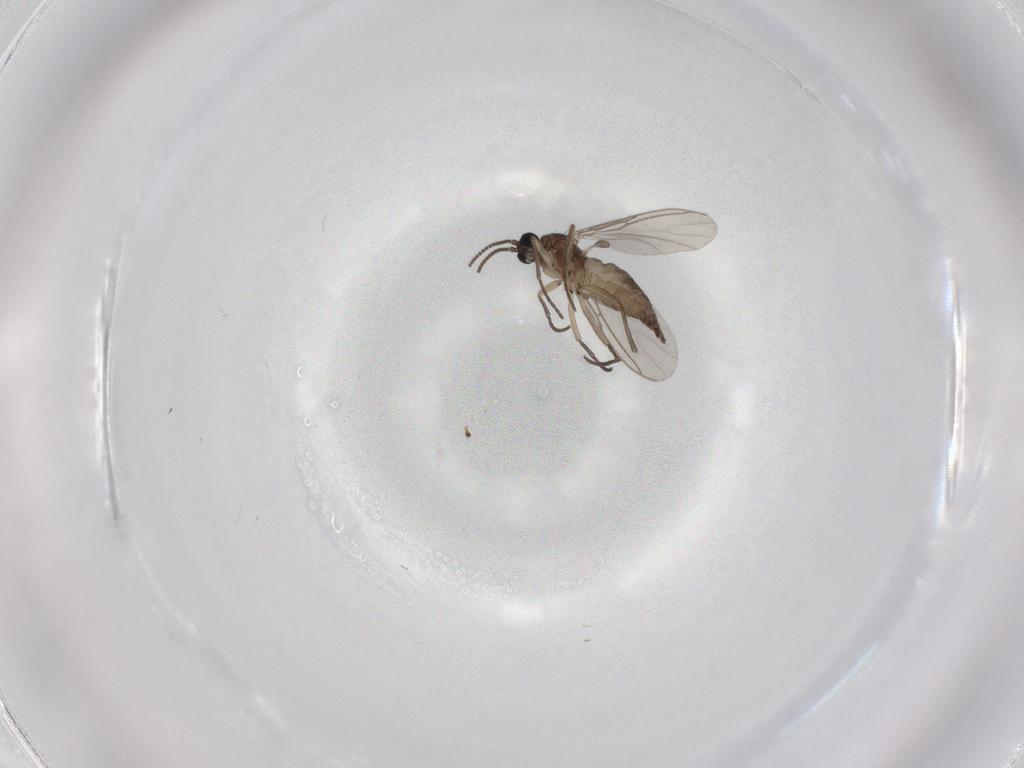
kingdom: Animalia
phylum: Arthropoda
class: Insecta
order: Diptera
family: Sciaridae
